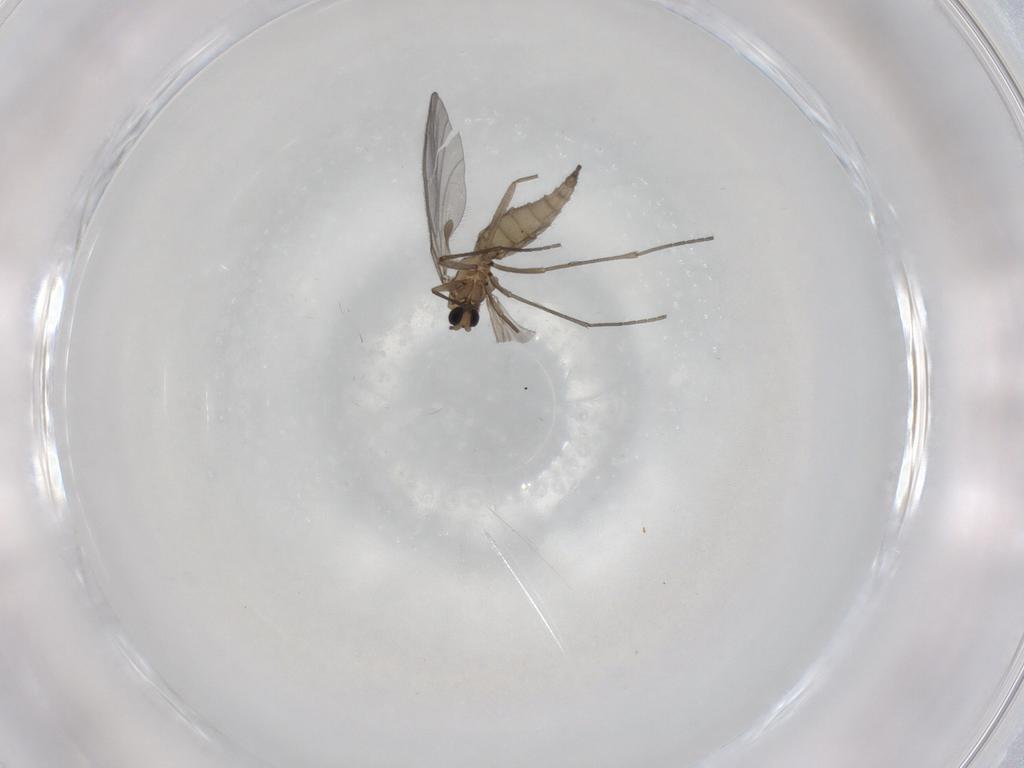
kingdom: Animalia
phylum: Arthropoda
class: Insecta
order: Diptera
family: Sciaridae
